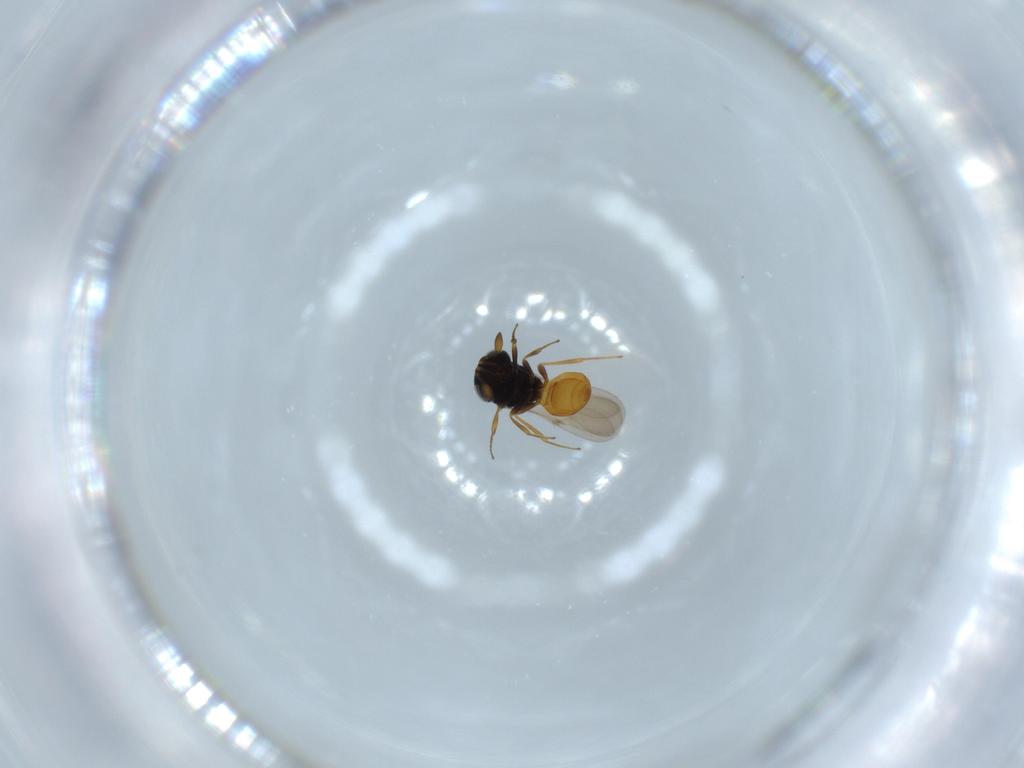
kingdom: Animalia
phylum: Arthropoda
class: Insecta
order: Hymenoptera
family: Scelionidae
